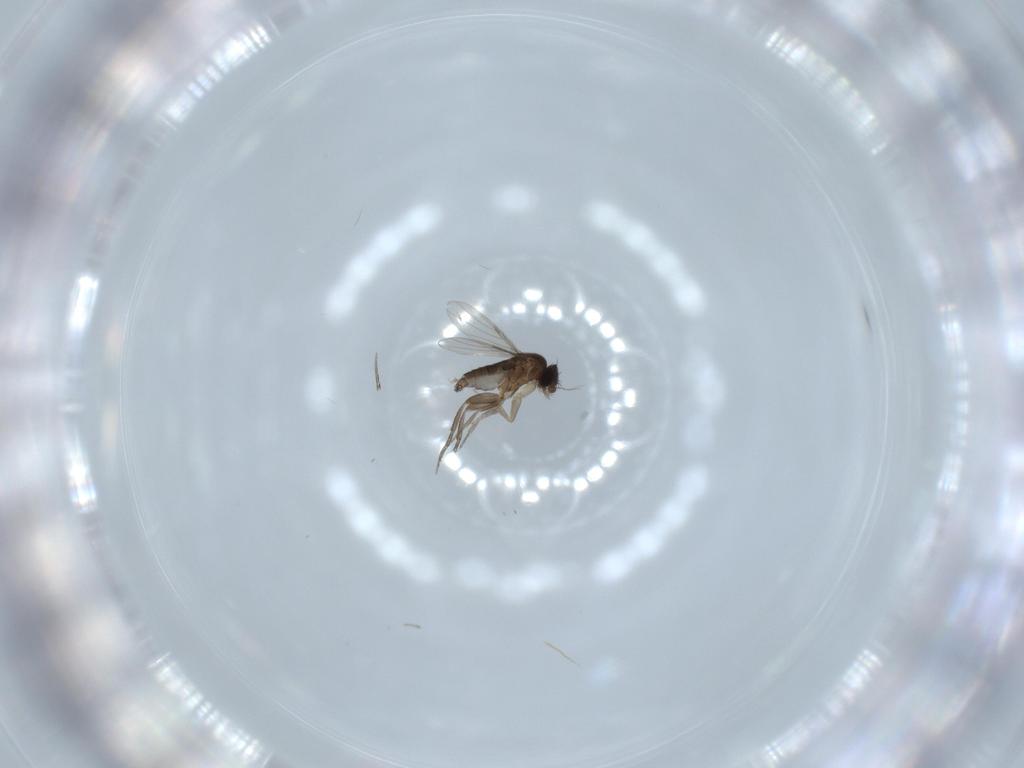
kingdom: Animalia
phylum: Arthropoda
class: Insecta
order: Diptera
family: Phoridae
